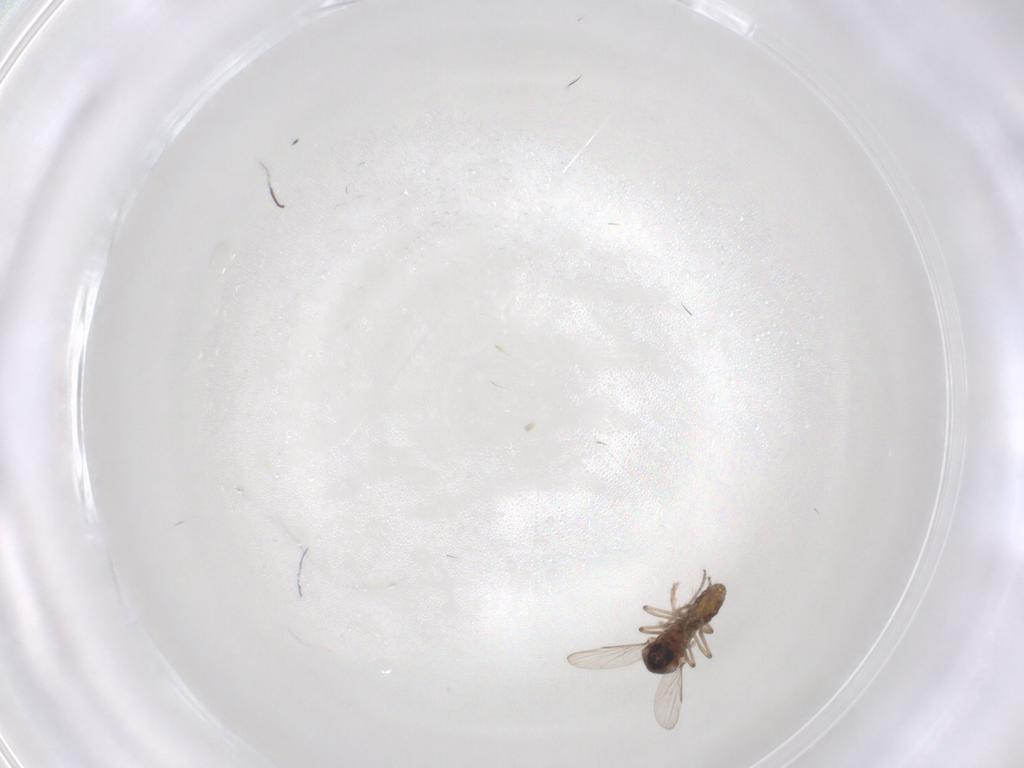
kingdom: Animalia
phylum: Arthropoda
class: Insecta
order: Diptera
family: Ceratopogonidae
